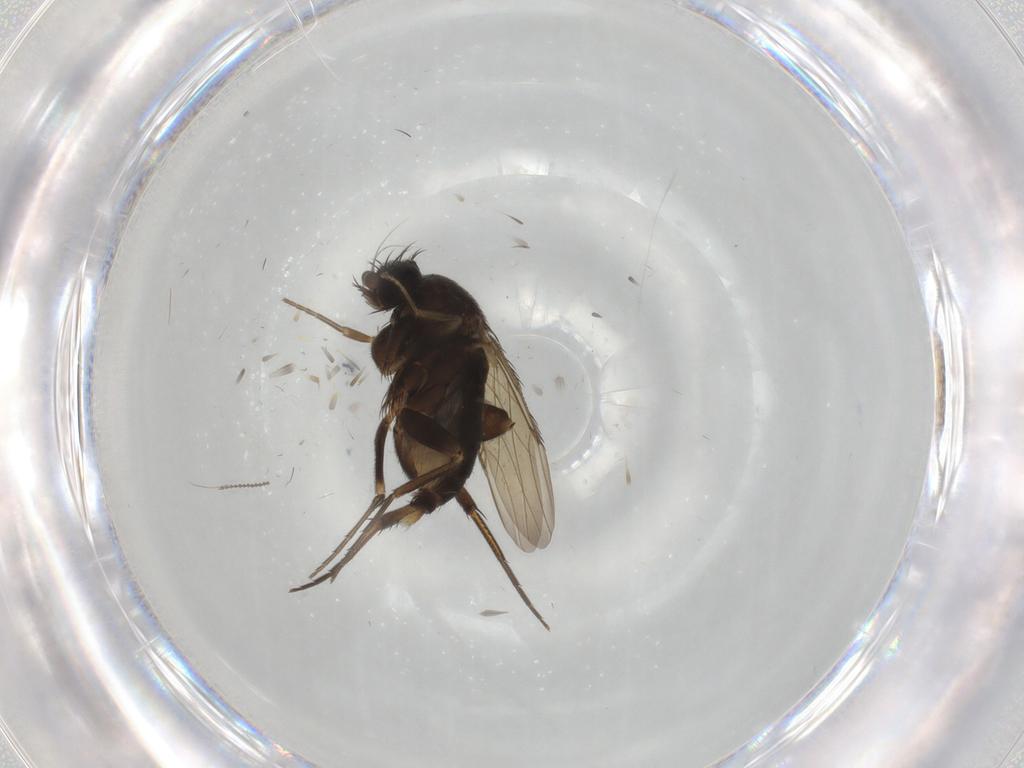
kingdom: Animalia
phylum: Arthropoda
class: Insecta
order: Diptera
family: Phoridae
